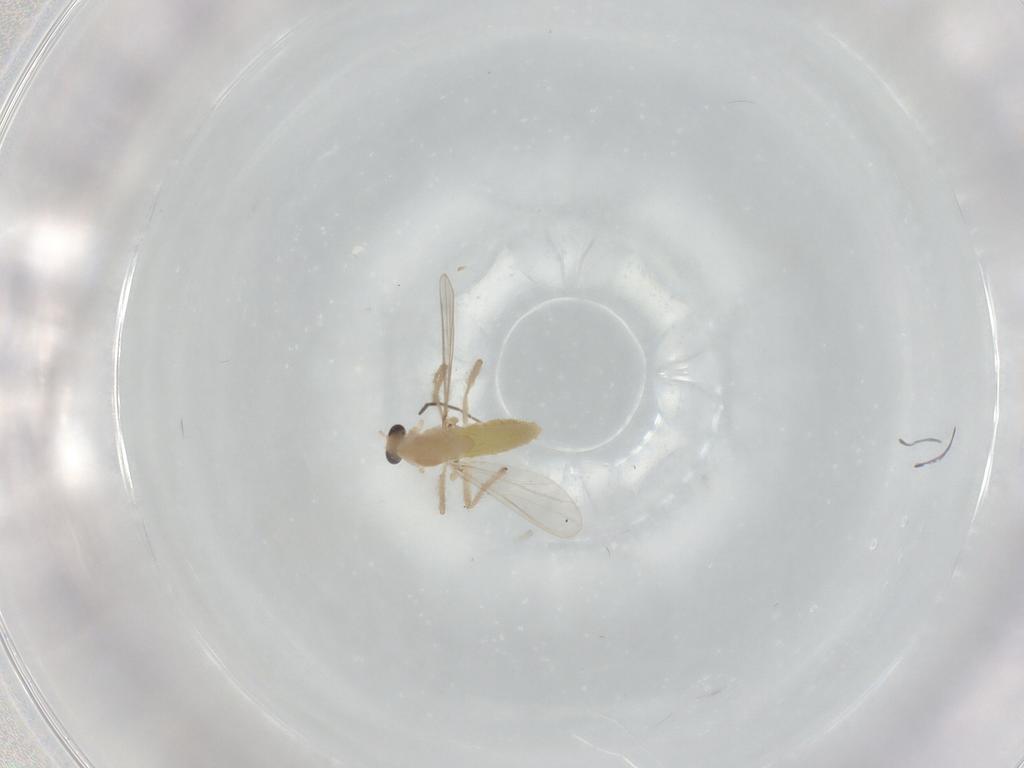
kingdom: Animalia
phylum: Arthropoda
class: Insecta
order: Diptera
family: Chironomidae
